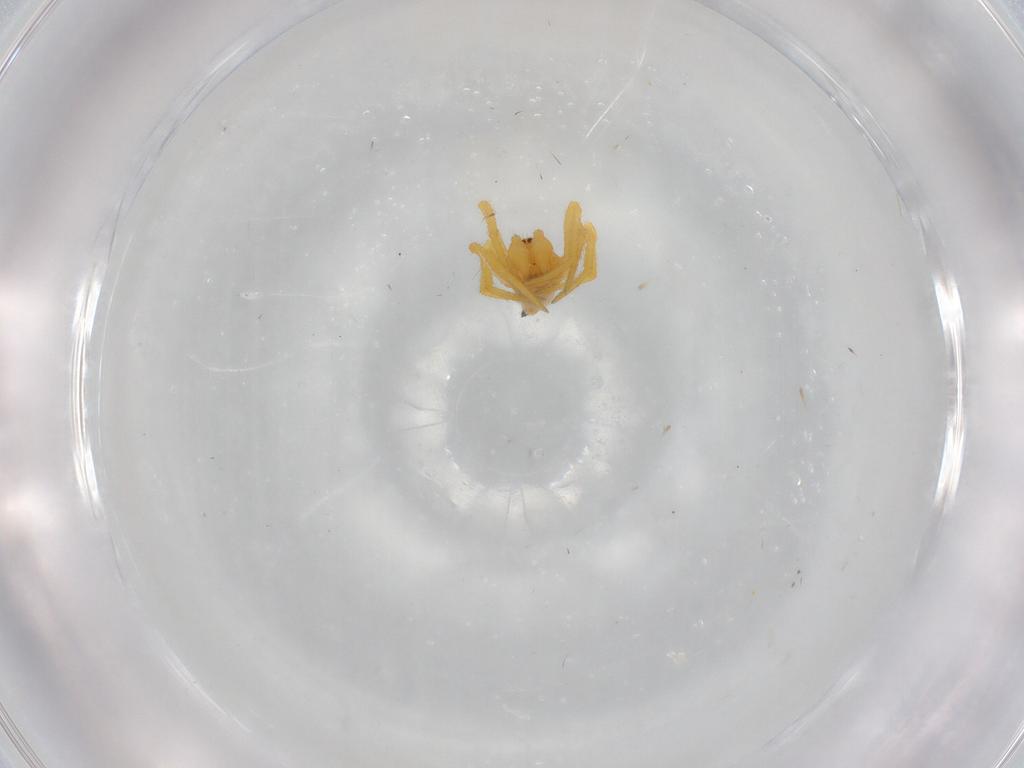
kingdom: Animalia
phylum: Arthropoda
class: Arachnida
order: Araneae
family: Theridiidae
